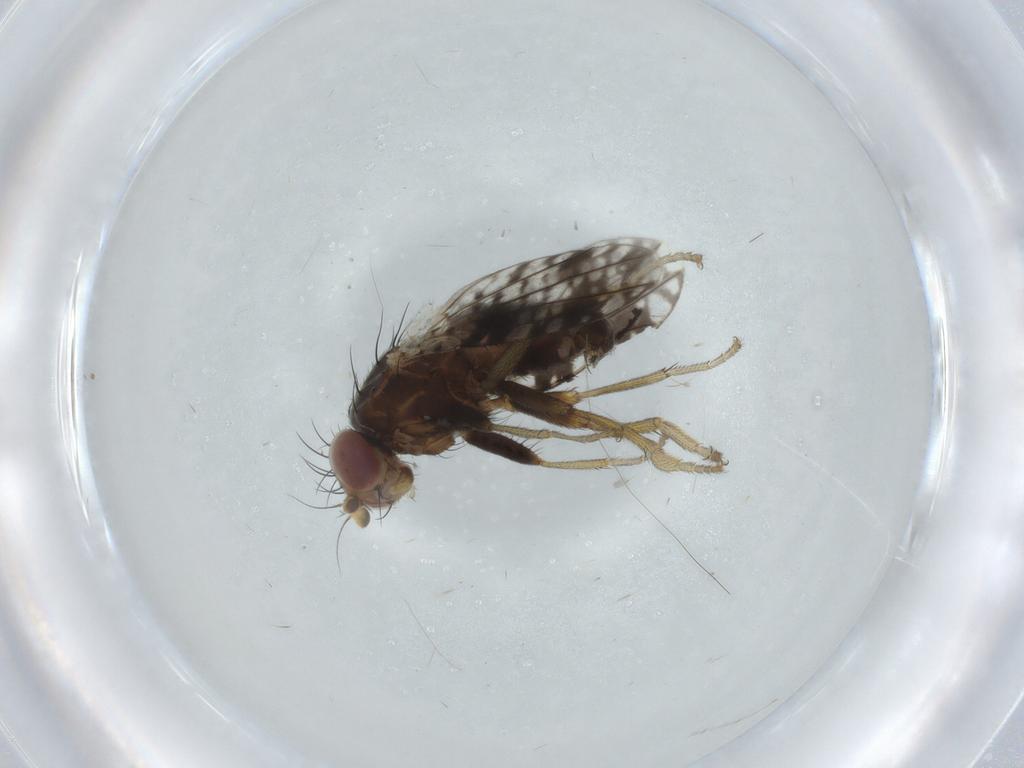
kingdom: Animalia
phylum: Arthropoda
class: Insecta
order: Diptera
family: Tephritidae
